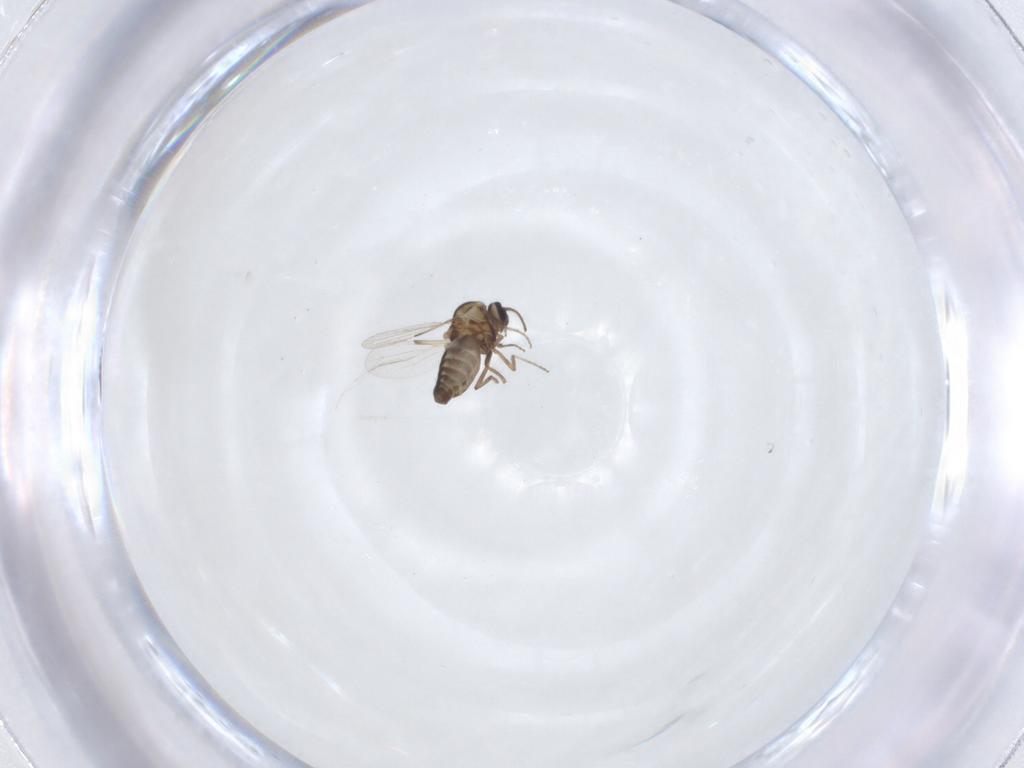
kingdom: Animalia
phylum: Arthropoda
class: Insecta
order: Diptera
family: Ceratopogonidae
